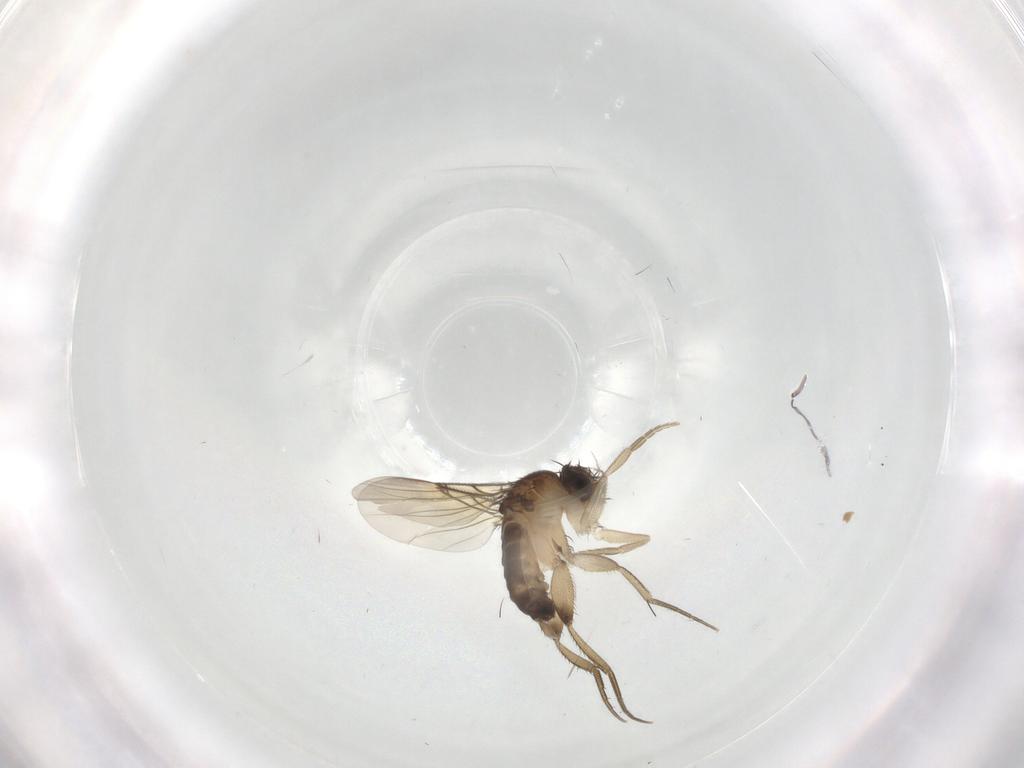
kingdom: Animalia
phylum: Arthropoda
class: Insecta
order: Diptera
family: Phoridae
